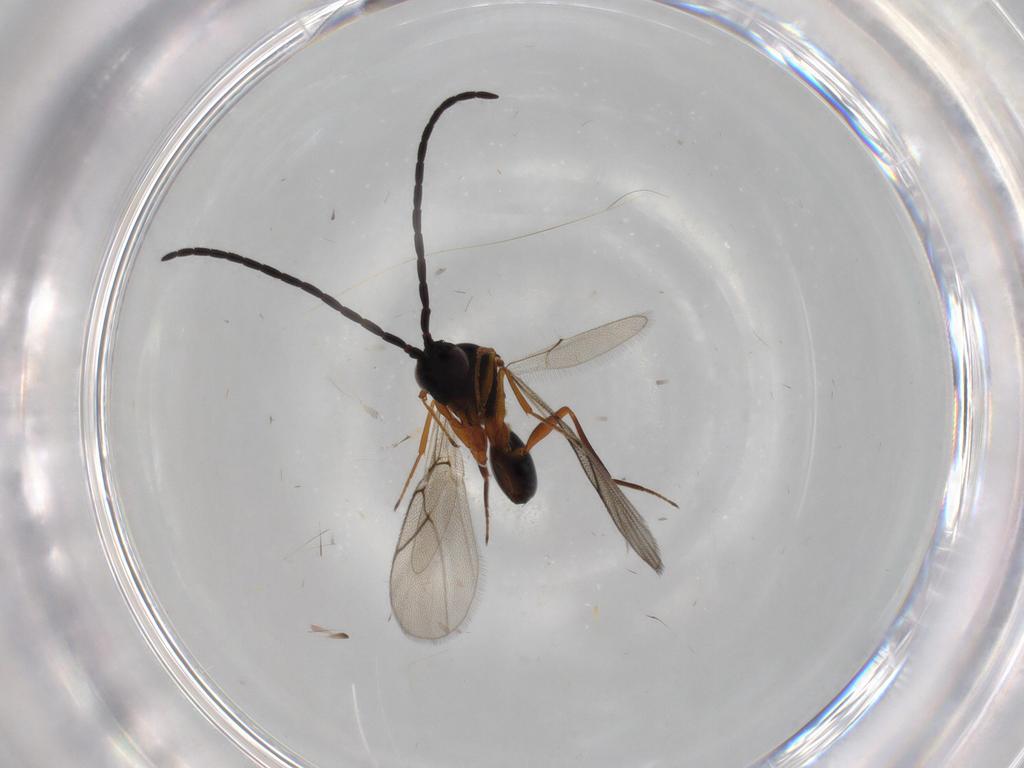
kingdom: Animalia
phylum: Arthropoda
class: Insecta
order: Hymenoptera
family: Figitidae
